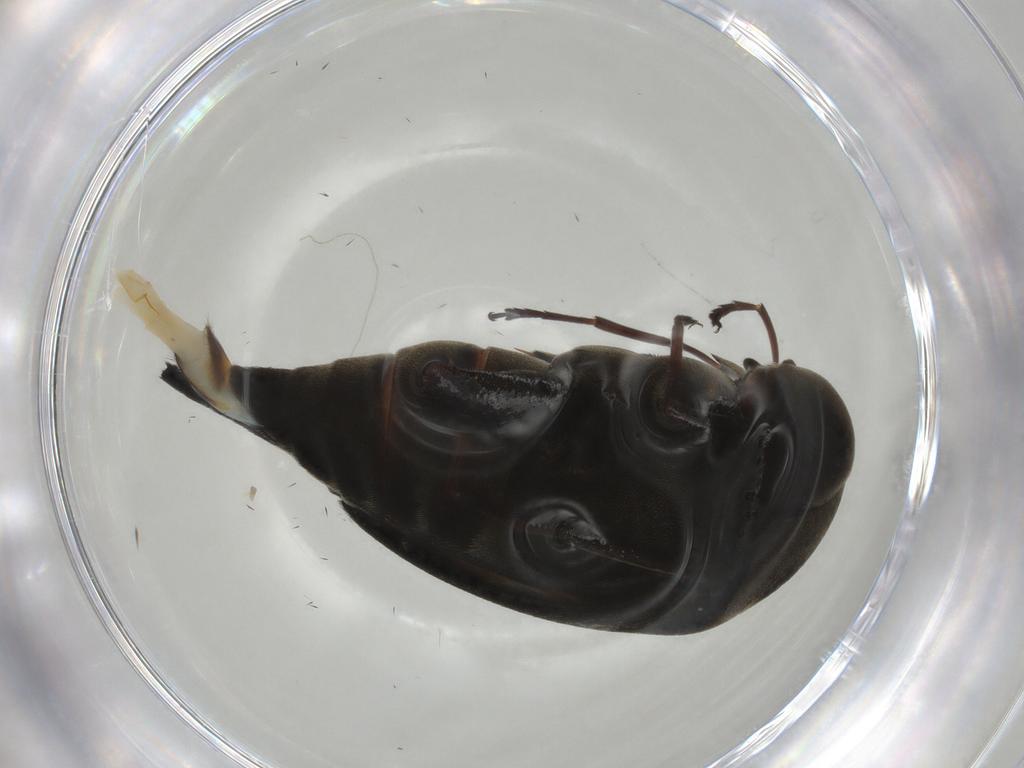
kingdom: Animalia
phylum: Arthropoda
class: Insecta
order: Coleoptera
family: Mordellidae
